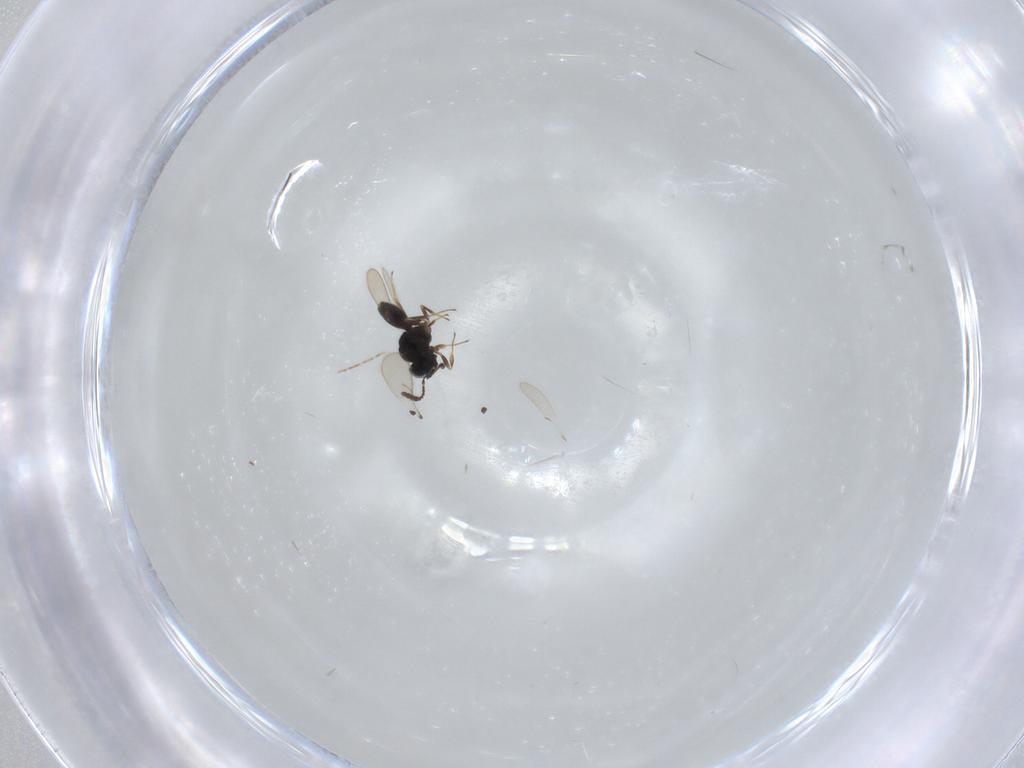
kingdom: Animalia
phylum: Arthropoda
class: Insecta
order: Hymenoptera
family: Scelionidae
